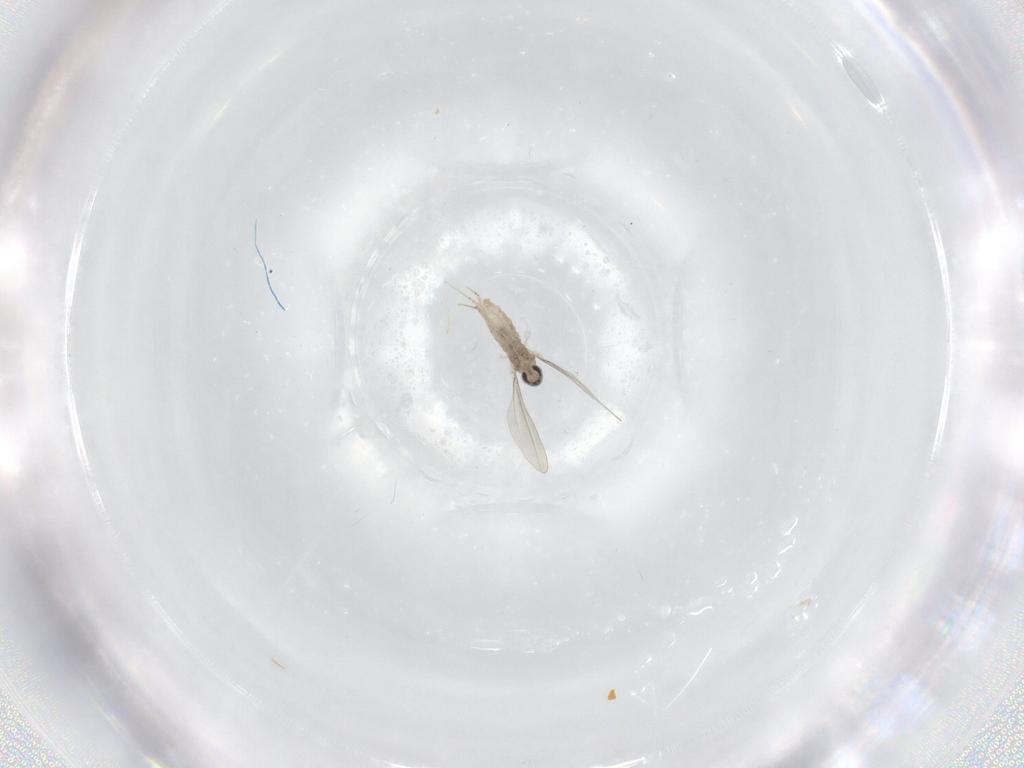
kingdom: Animalia
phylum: Arthropoda
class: Insecta
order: Diptera
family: Cecidomyiidae
